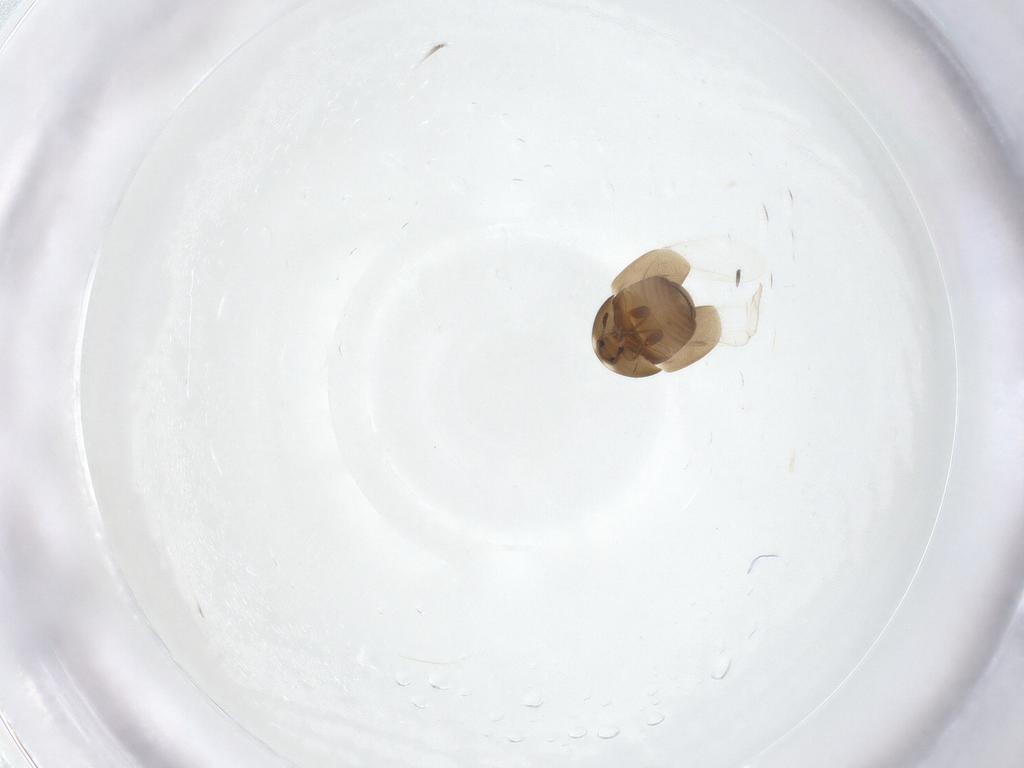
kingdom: Animalia
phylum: Arthropoda
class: Insecta
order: Coleoptera
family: Corylophidae
